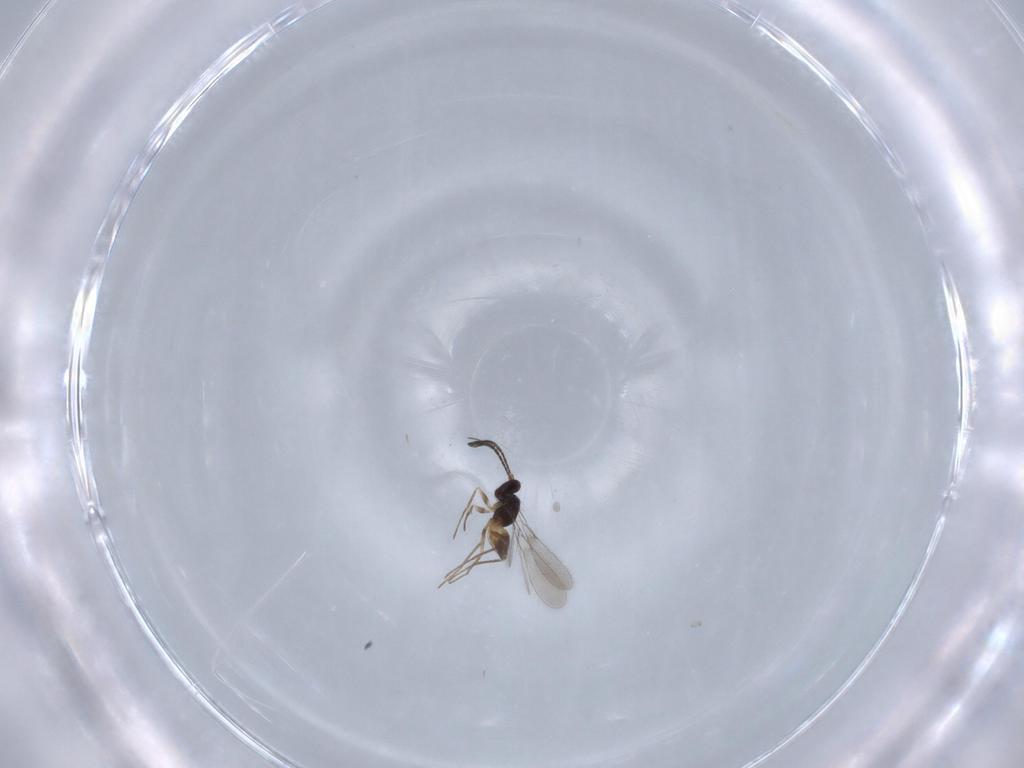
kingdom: Animalia
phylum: Arthropoda
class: Insecta
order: Hymenoptera
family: Mymaridae
